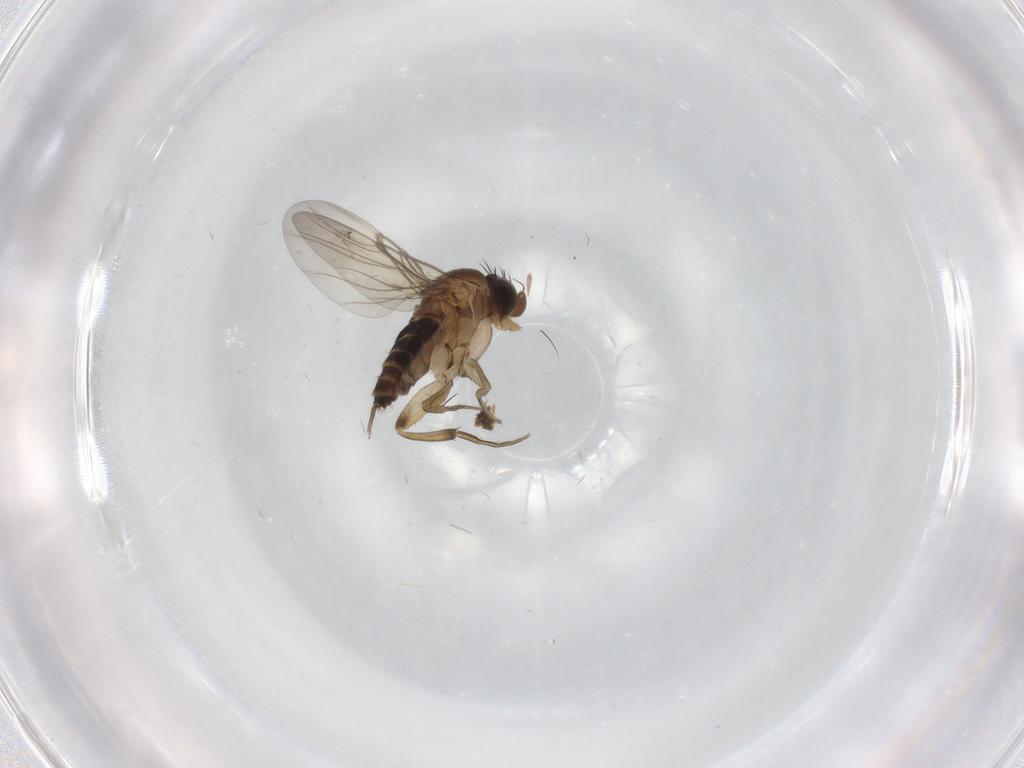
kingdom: Animalia
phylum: Arthropoda
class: Insecta
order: Diptera
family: Phoridae
